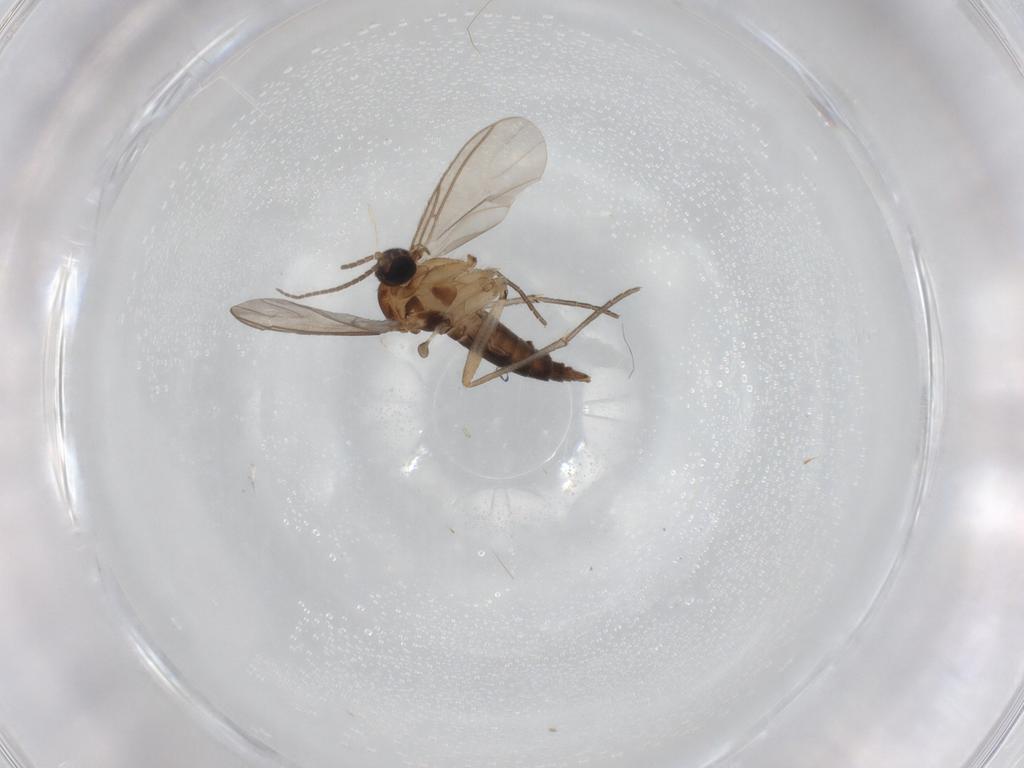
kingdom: Animalia
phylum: Arthropoda
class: Insecta
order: Diptera
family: Sciaridae
